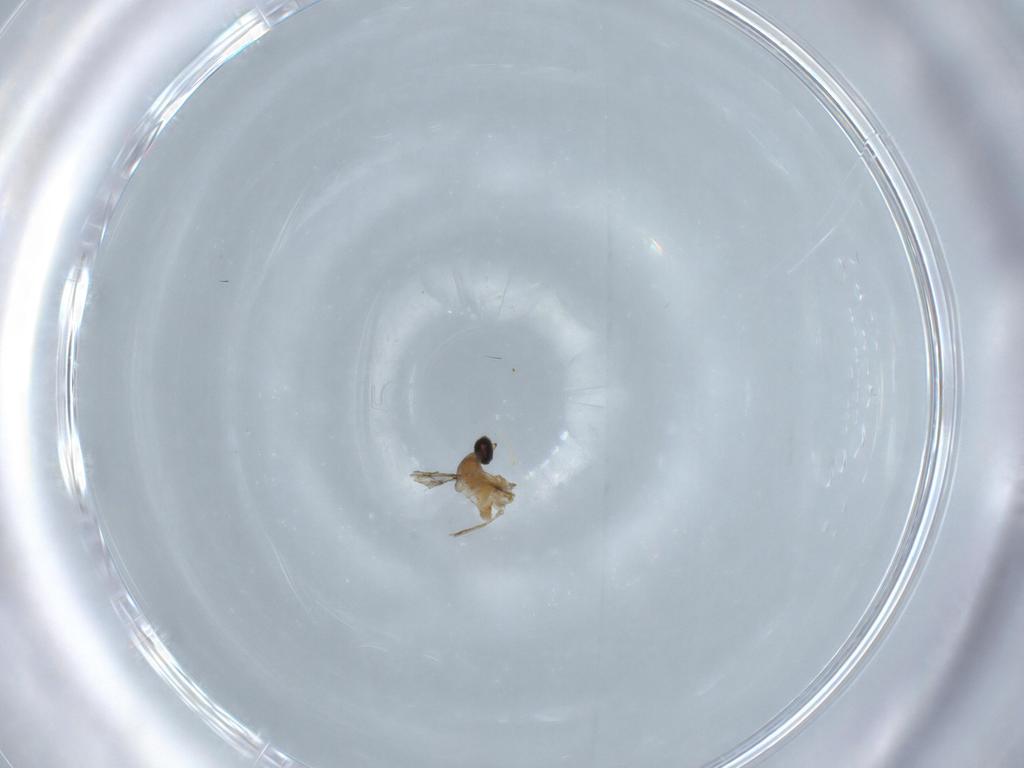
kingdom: Animalia
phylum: Arthropoda
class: Insecta
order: Diptera
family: Cecidomyiidae
